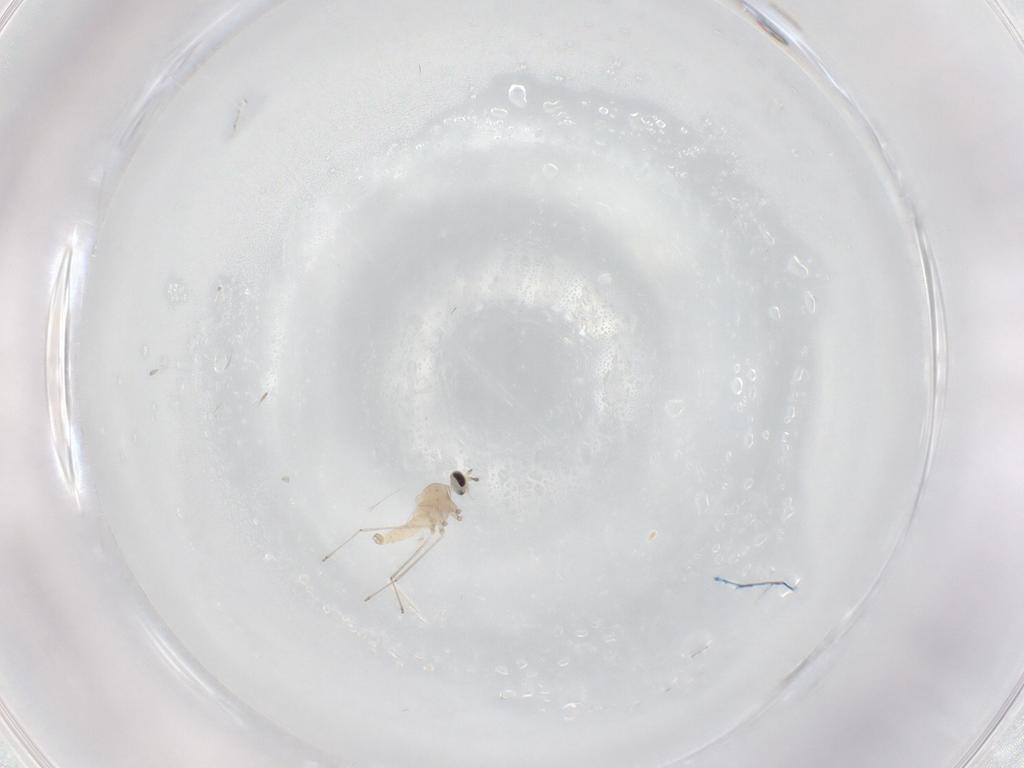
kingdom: Animalia
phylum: Arthropoda
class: Insecta
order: Diptera
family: Cecidomyiidae
